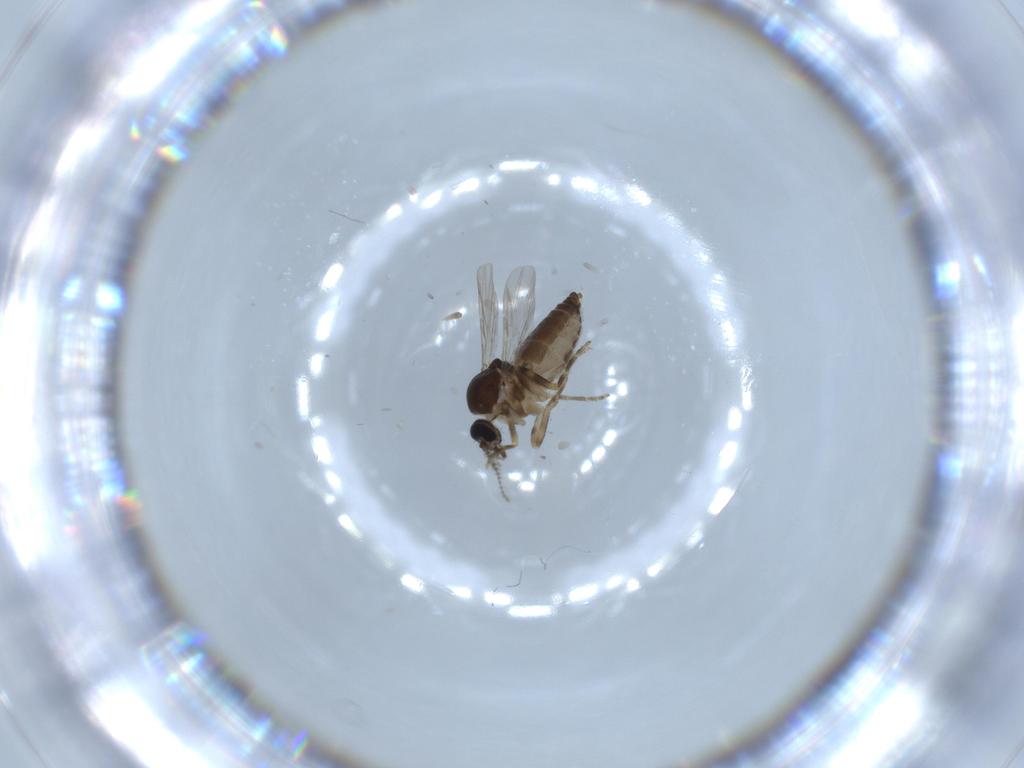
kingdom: Animalia
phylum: Arthropoda
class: Insecta
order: Diptera
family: Ceratopogonidae
